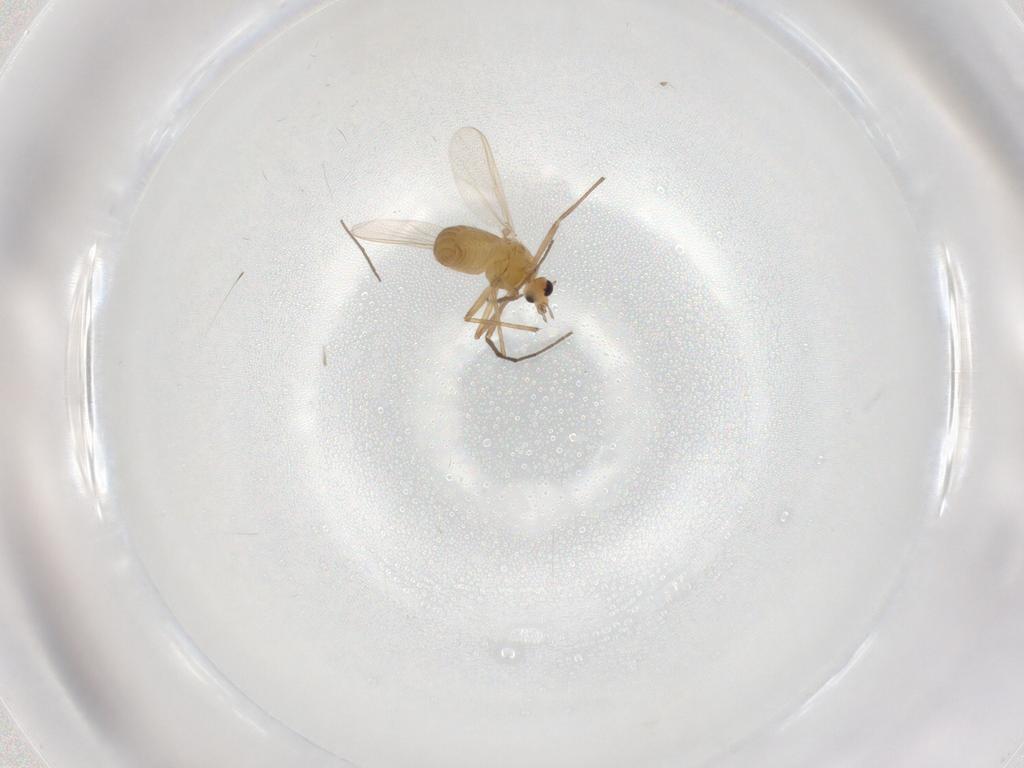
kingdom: Animalia
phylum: Arthropoda
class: Insecta
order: Diptera
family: Chironomidae
